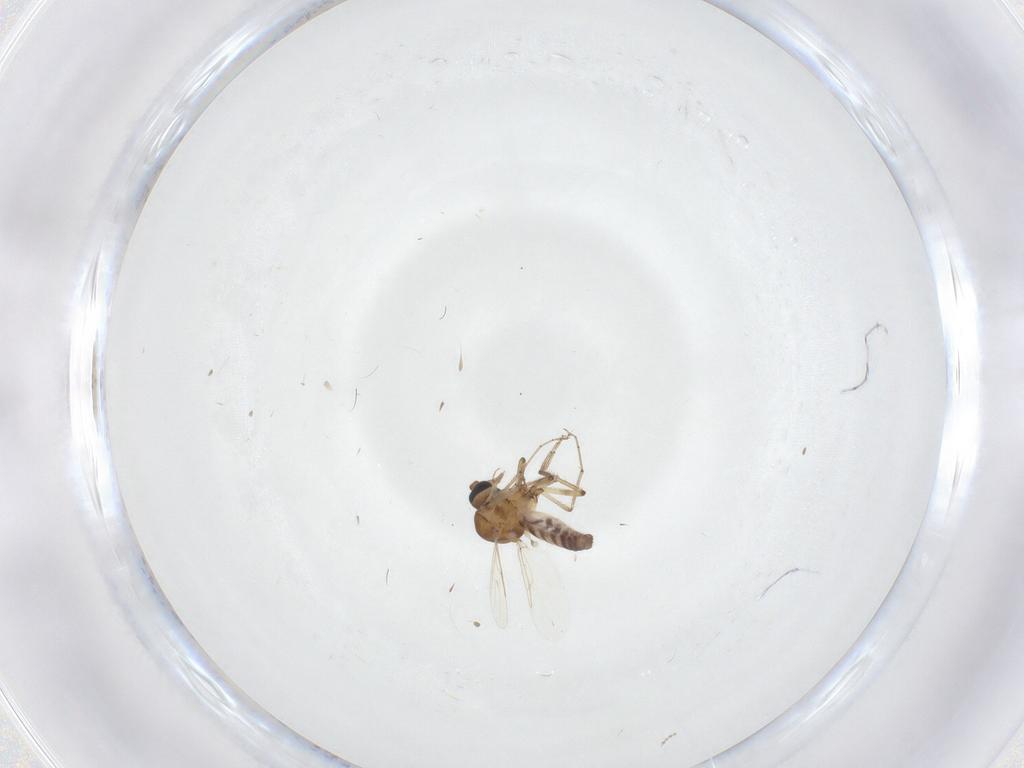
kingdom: Animalia
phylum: Arthropoda
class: Insecta
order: Diptera
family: Ceratopogonidae
